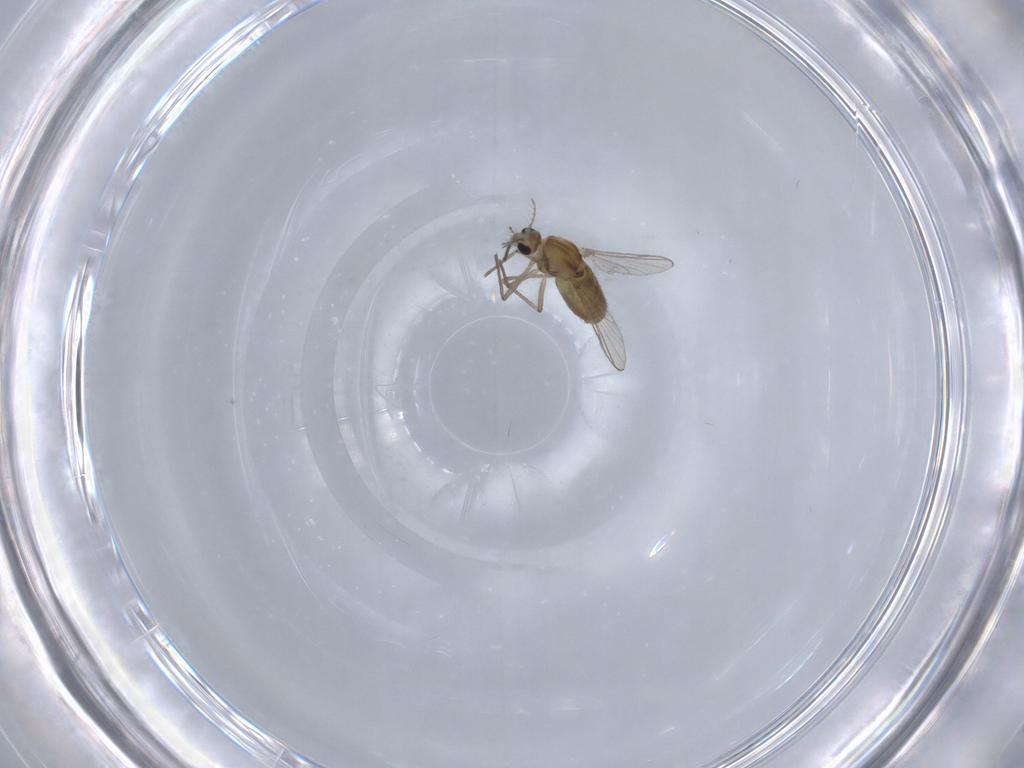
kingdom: Animalia
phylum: Arthropoda
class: Insecta
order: Diptera
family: Chironomidae
